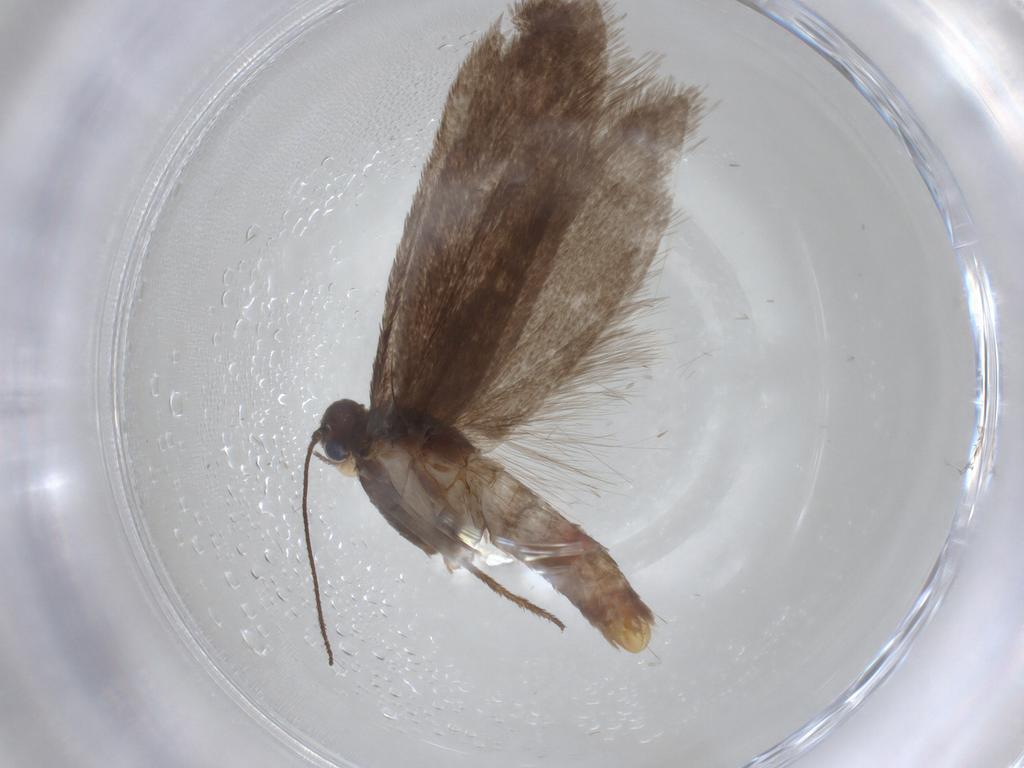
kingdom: Animalia
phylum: Arthropoda
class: Insecta
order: Lepidoptera
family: Limacodidae
